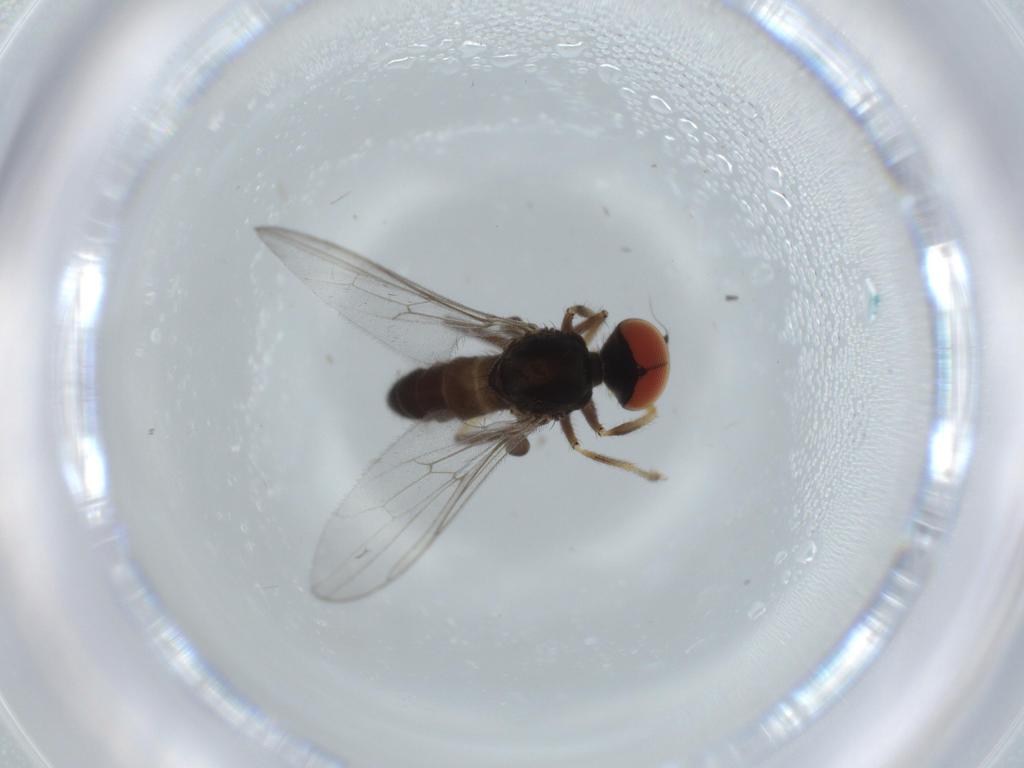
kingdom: Animalia
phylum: Arthropoda
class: Insecta
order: Diptera
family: Hybotidae
